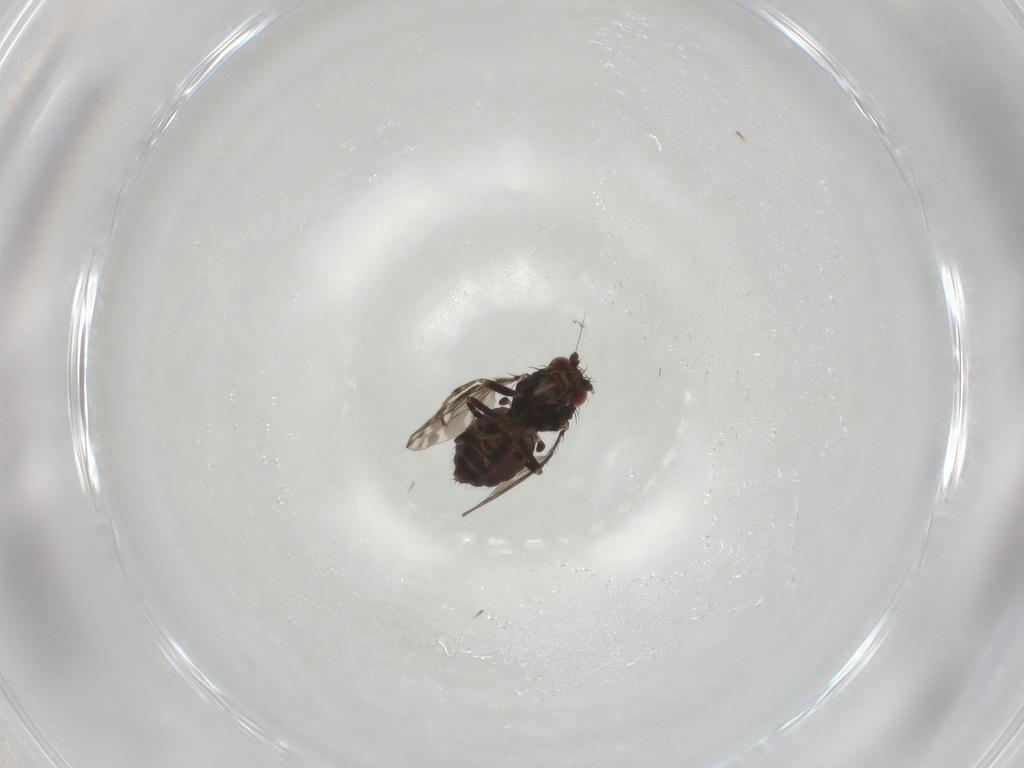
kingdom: Animalia
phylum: Arthropoda
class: Insecta
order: Diptera
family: Sphaeroceridae
